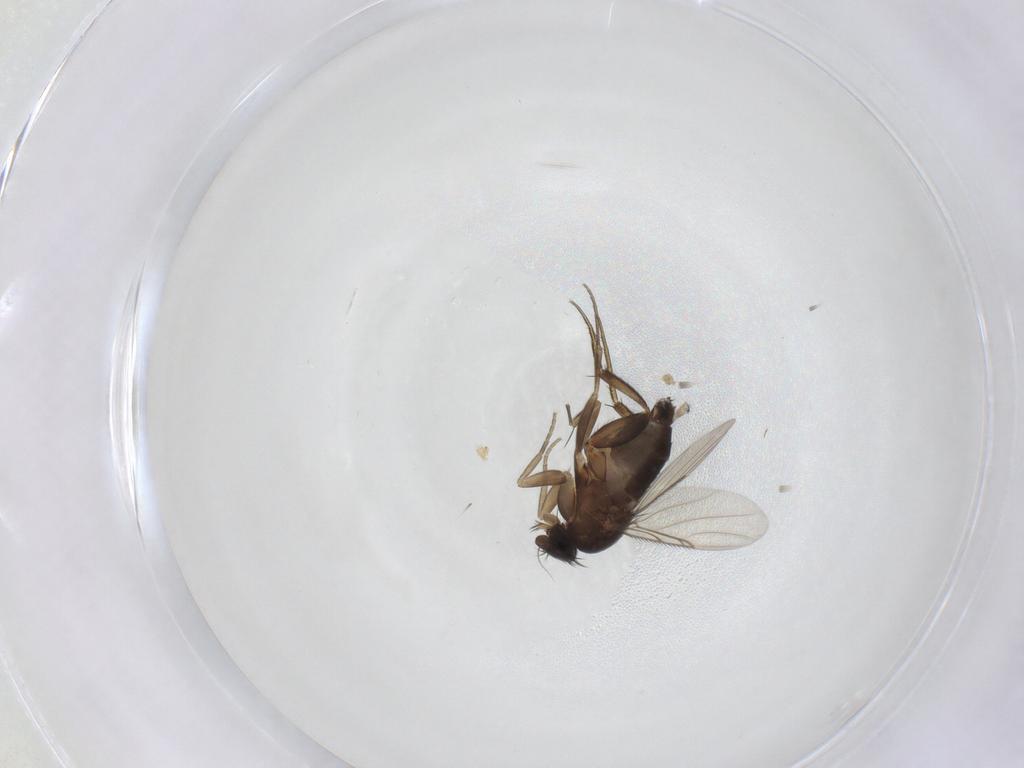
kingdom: Animalia
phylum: Arthropoda
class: Insecta
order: Diptera
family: Phoridae
